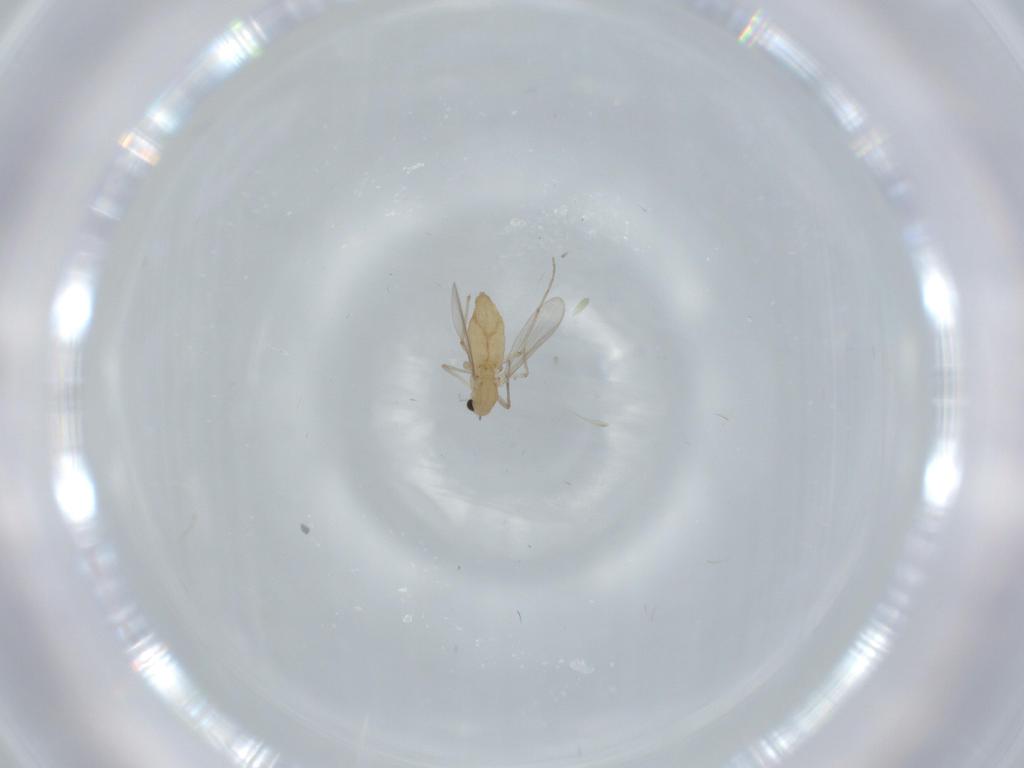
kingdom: Animalia
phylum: Arthropoda
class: Insecta
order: Diptera
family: Chironomidae
